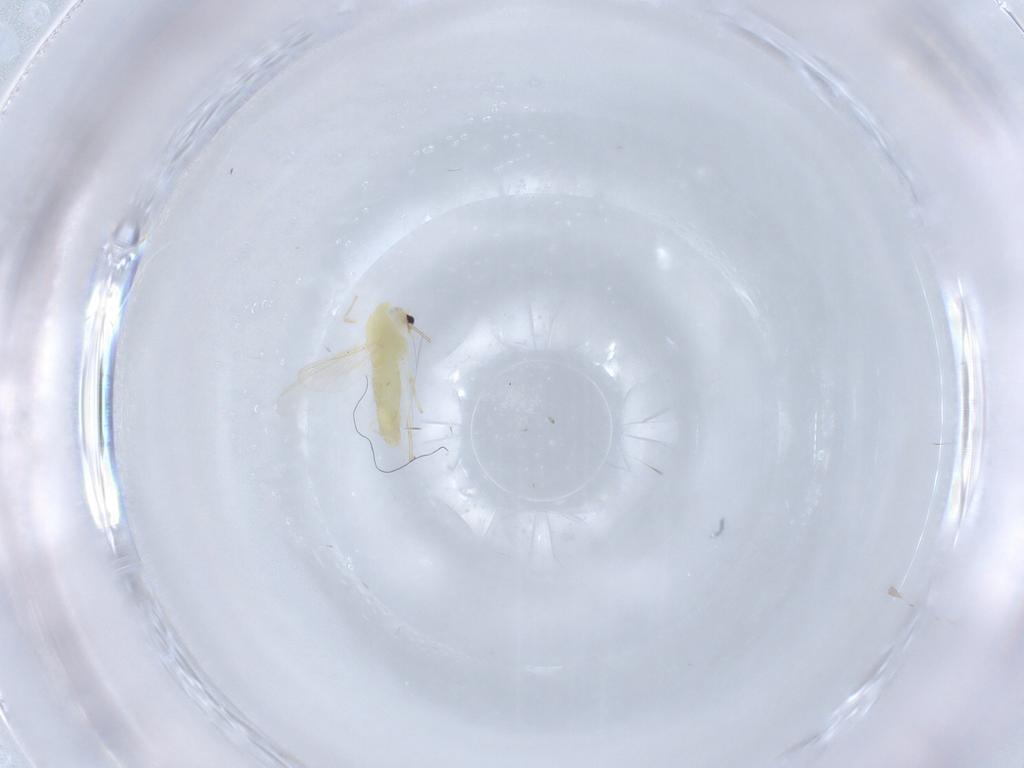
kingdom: Animalia
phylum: Arthropoda
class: Insecta
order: Diptera
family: Chironomidae
